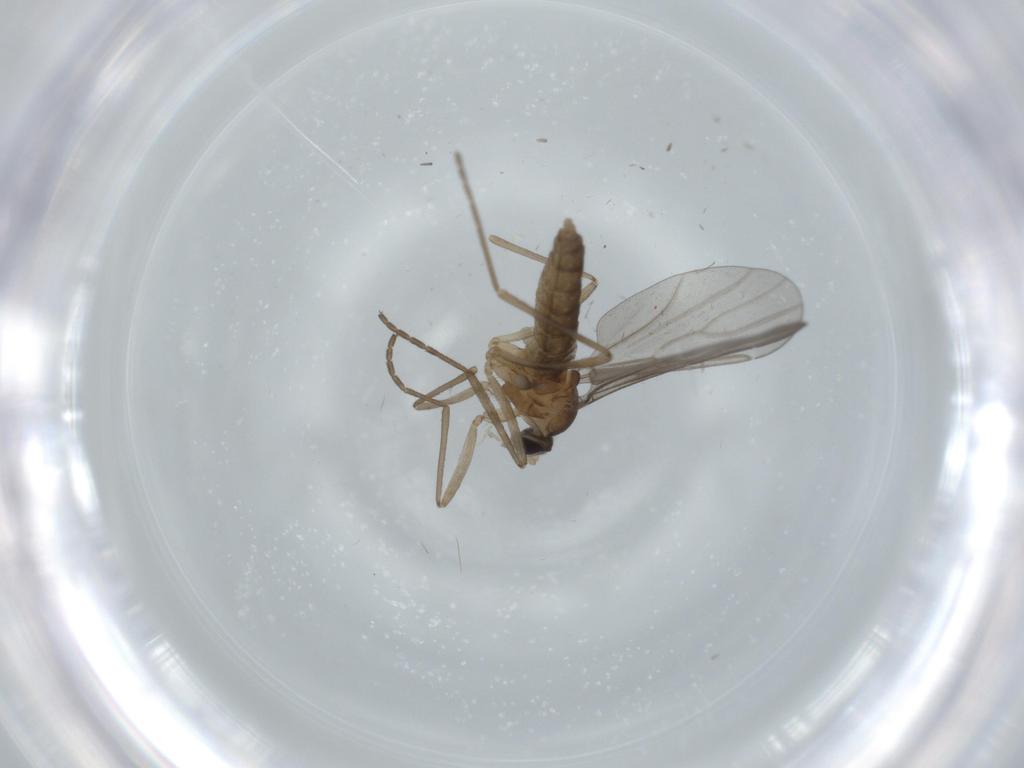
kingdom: Animalia
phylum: Arthropoda
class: Insecta
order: Diptera
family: Cecidomyiidae
